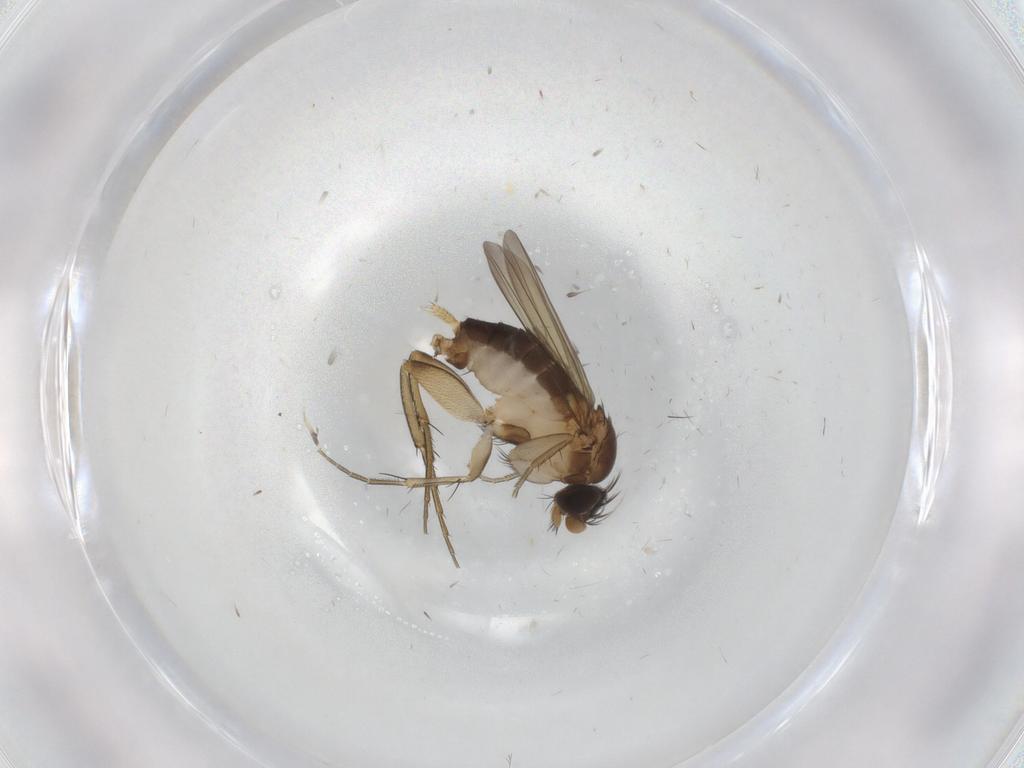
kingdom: Animalia
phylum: Arthropoda
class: Insecta
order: Diptera
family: Phoridae
